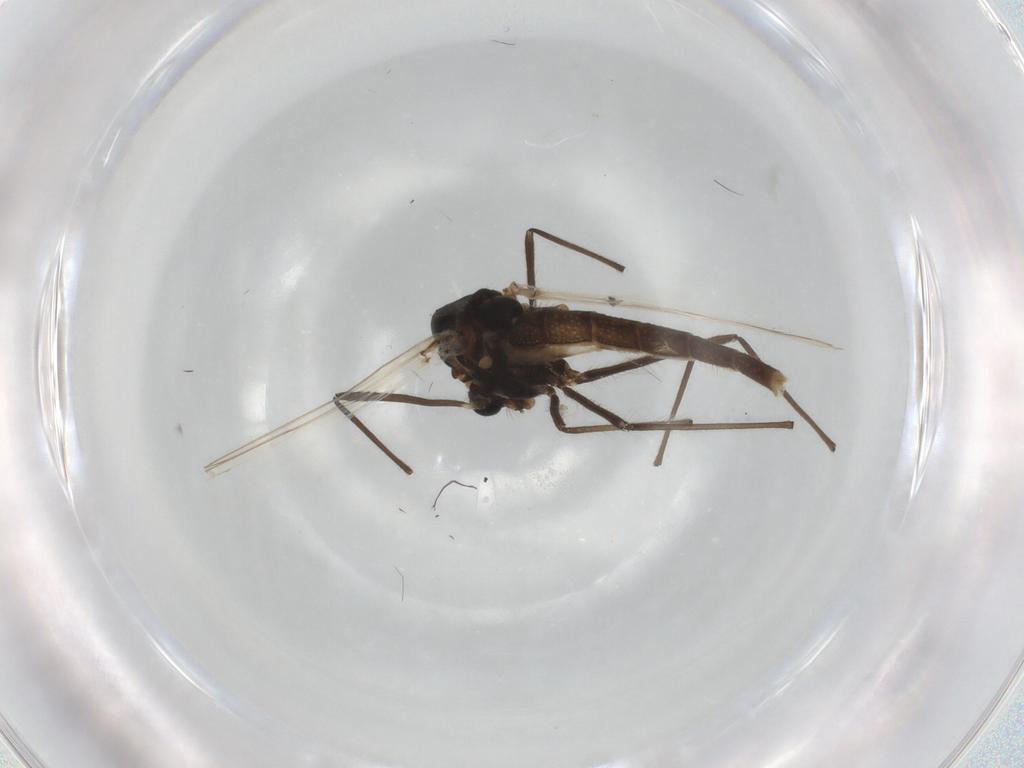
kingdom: Animalia
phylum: Arthropoda
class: Insecta
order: Diptera
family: Chironomidae
